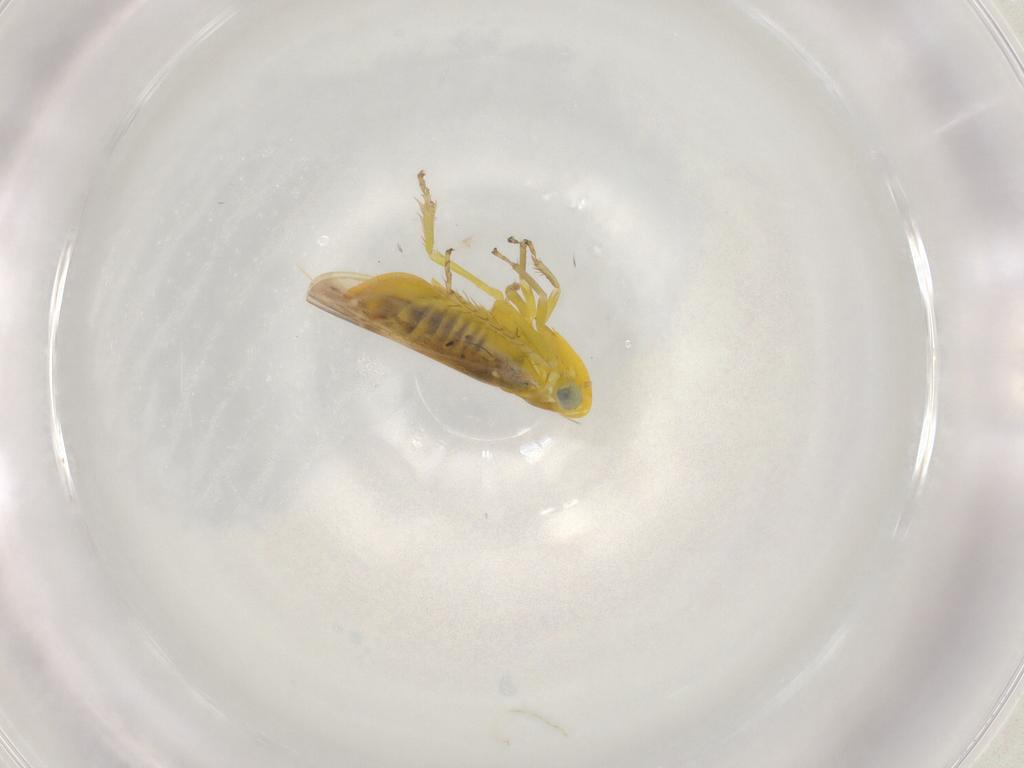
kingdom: Animalia
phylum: Arthropoda
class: Insecta
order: Hemiptera
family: Cicadellidae
